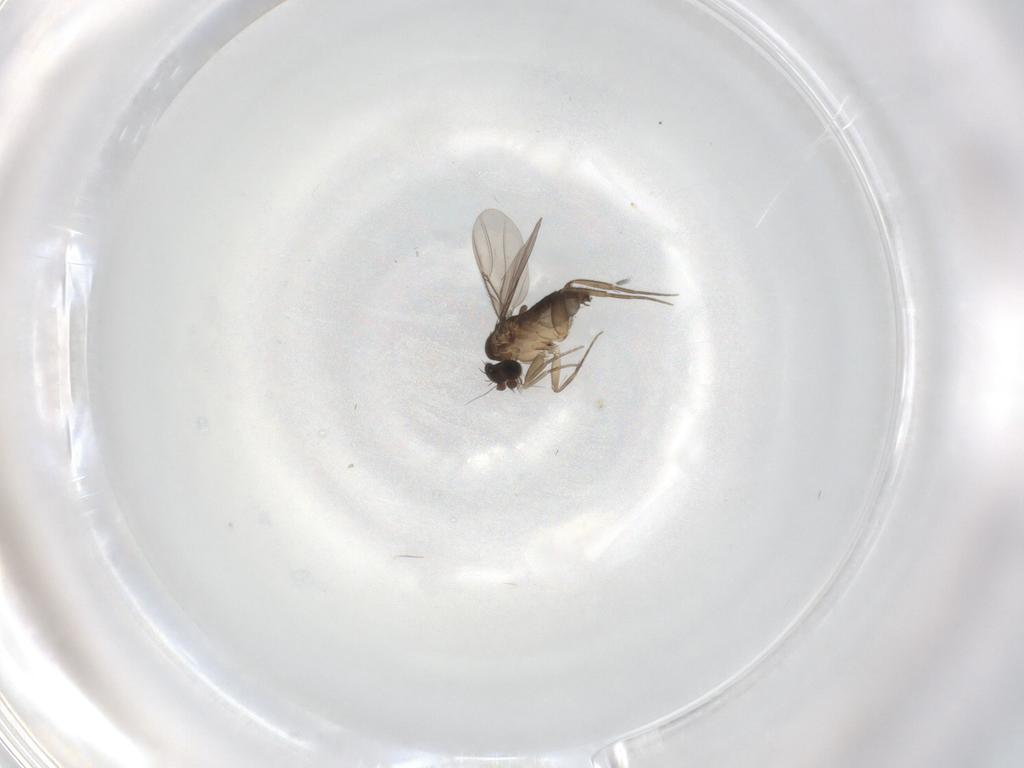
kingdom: Animalia
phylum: Arthropoda
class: Insecta
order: Diptera
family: Phoridae
